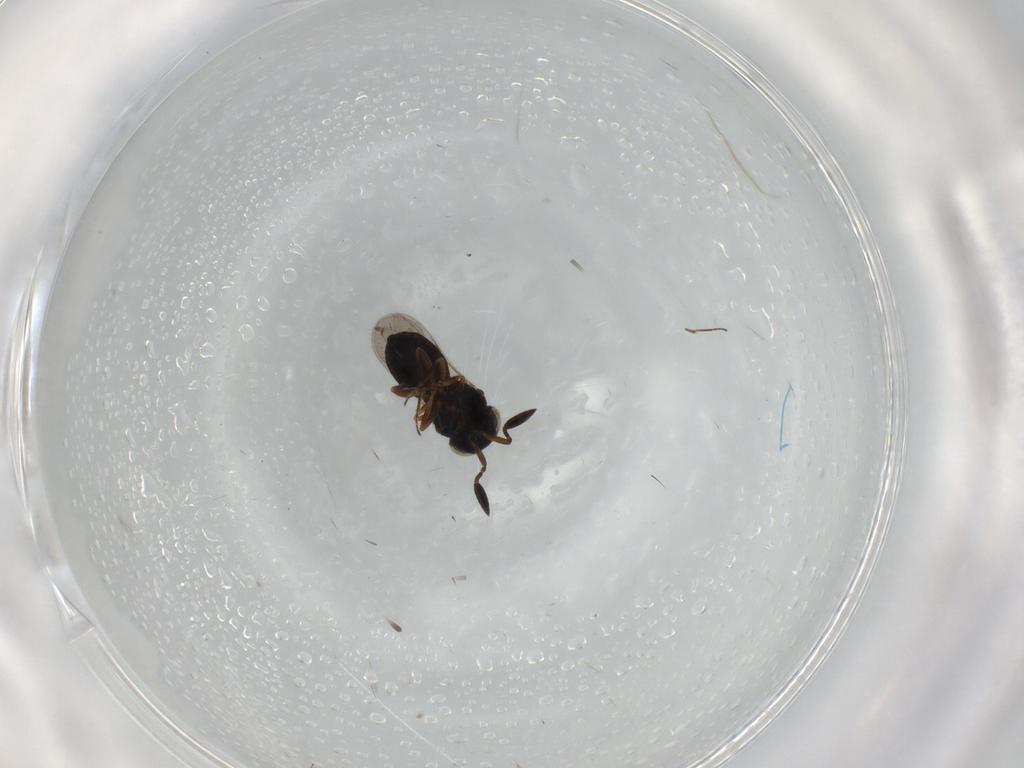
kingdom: Animalia
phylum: Arthropoda
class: Insecta
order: Hymenoptera
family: Scelionidae
